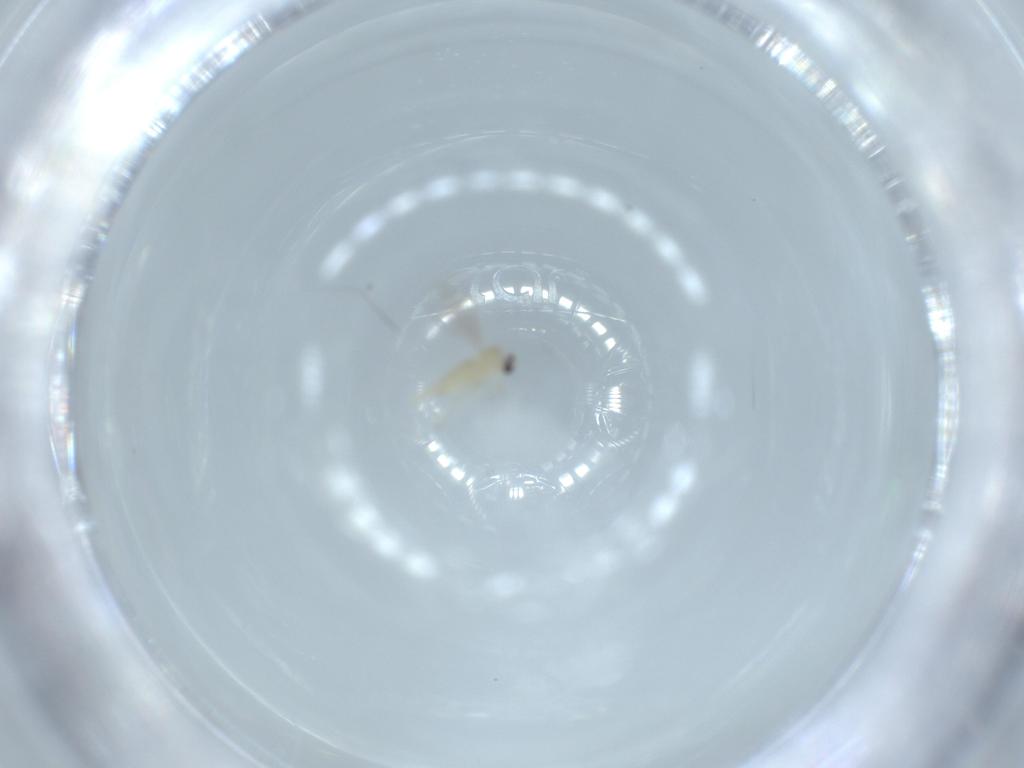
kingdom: Animalia
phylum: Arthropoda
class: Insecta
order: Diptera
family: Cecidomyiidae
